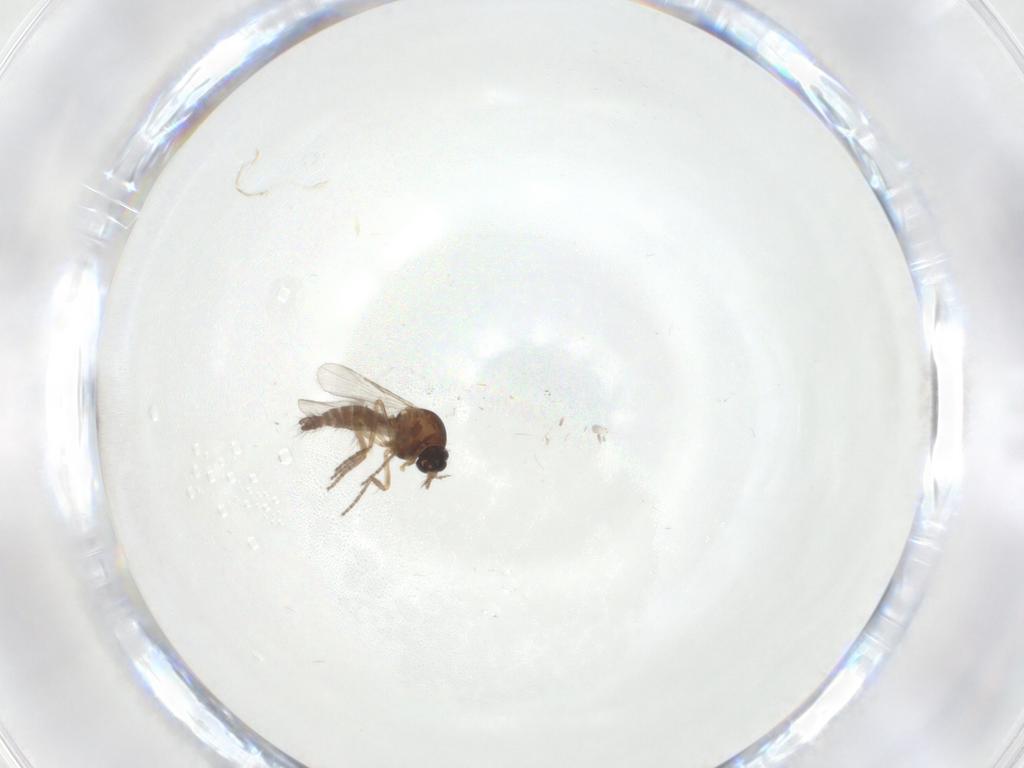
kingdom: Animalia
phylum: Arthropoda
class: Insecta
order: Diptera
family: Ceratopogonidae
